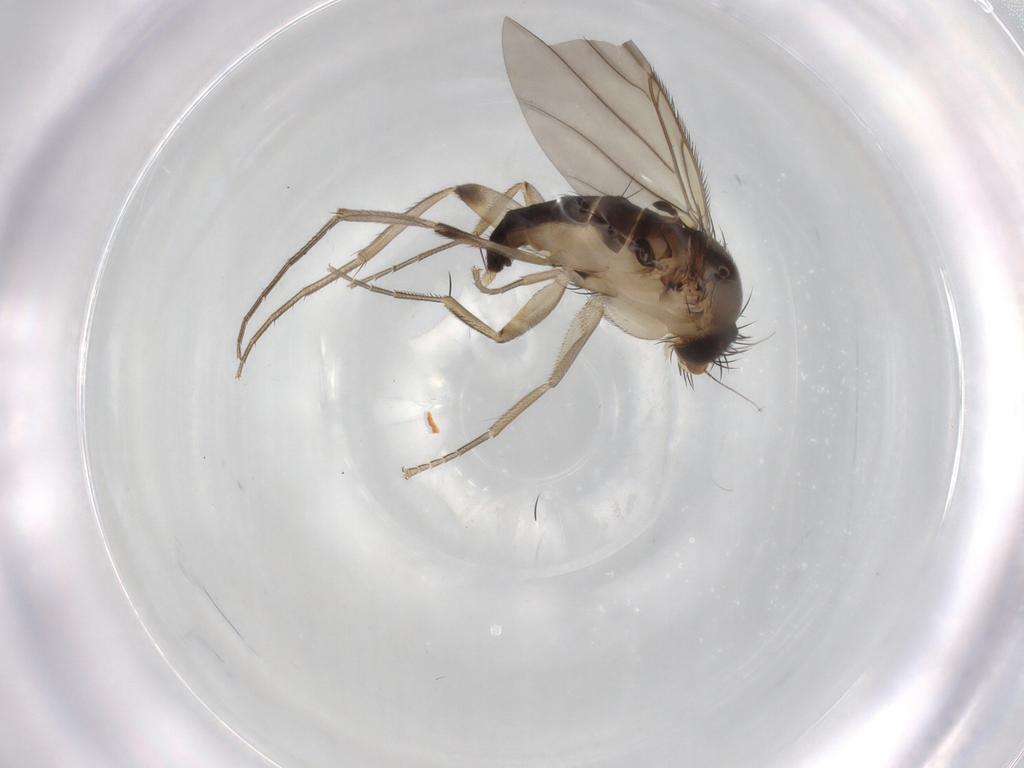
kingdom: Animalia
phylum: Arthropoda
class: Insecta
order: Diptera
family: Phoridae
